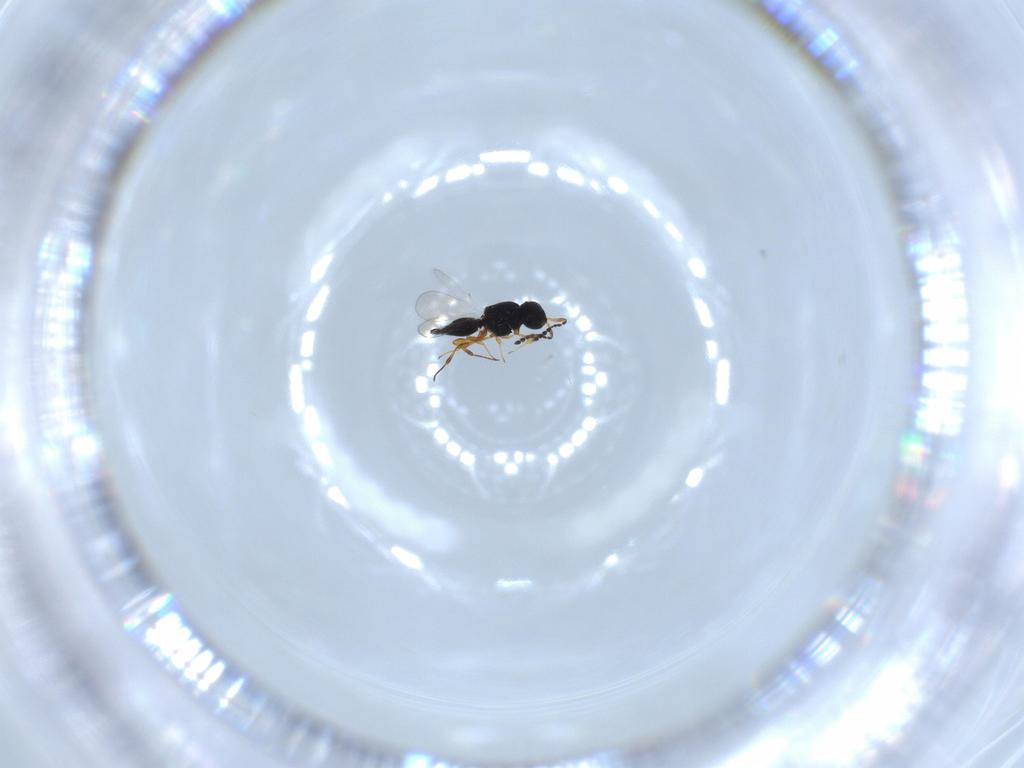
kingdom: Animalia
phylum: Arthropoda
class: Insecta
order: Hymenoptera
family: Platygastridae
